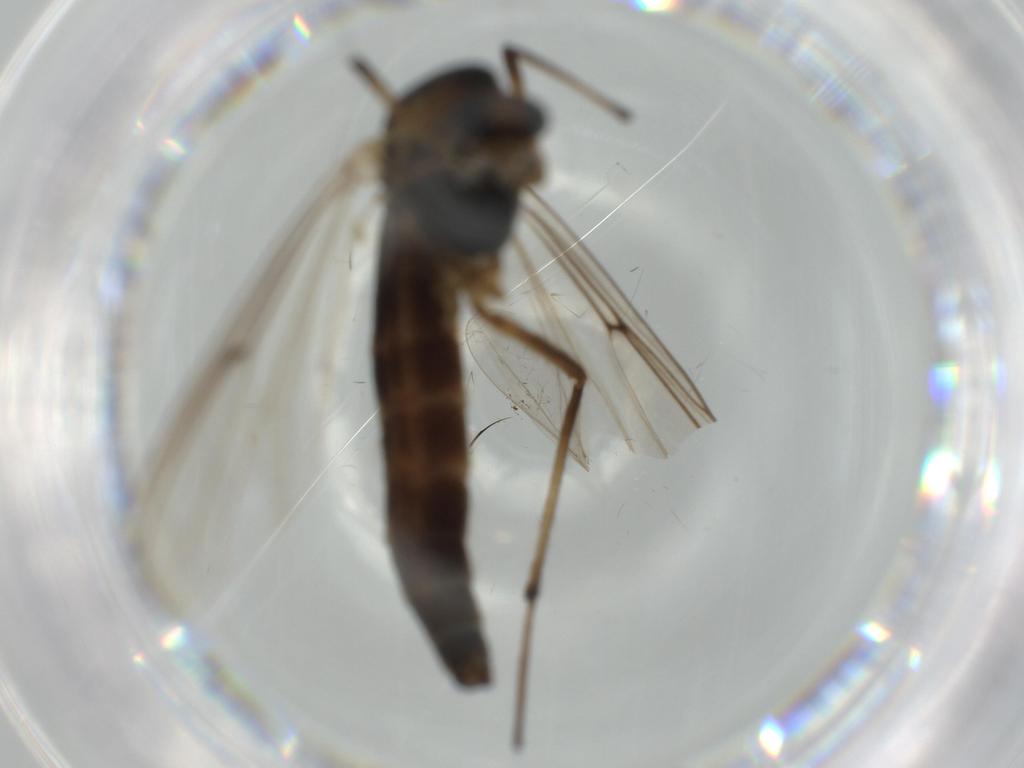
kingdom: Animalia
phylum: Arthropoda
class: Insecta
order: Diptera
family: Chironomidae
